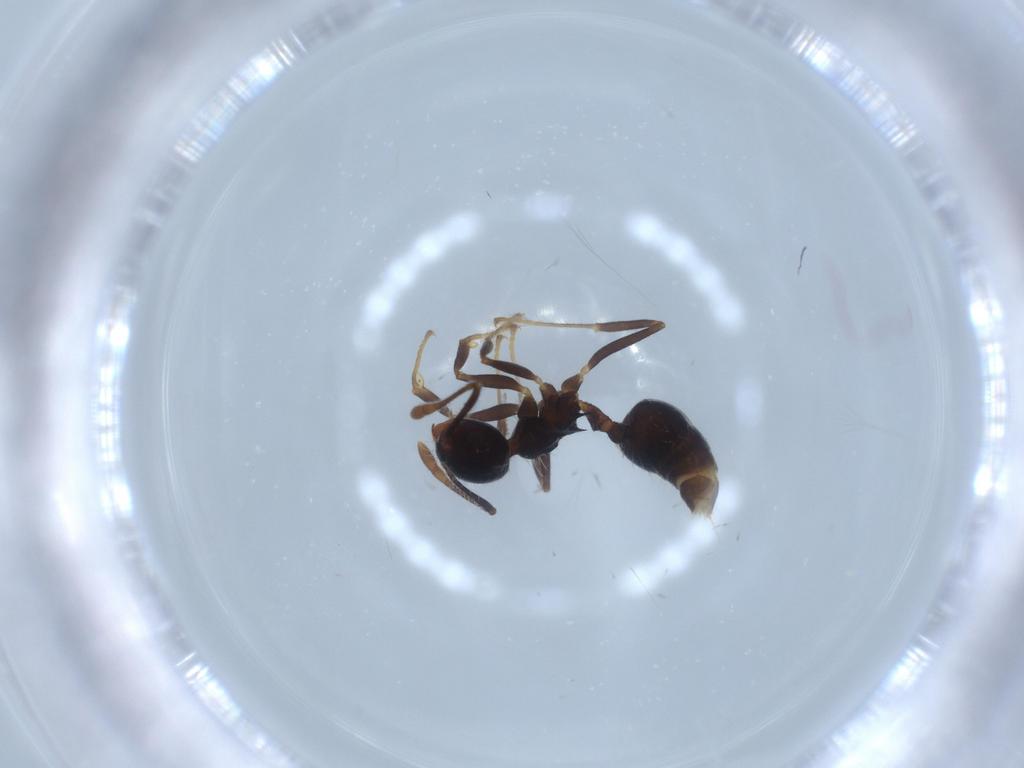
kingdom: Animalia
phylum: Arthropoda
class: Insecta
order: Hymenoptera
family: Formicidae
